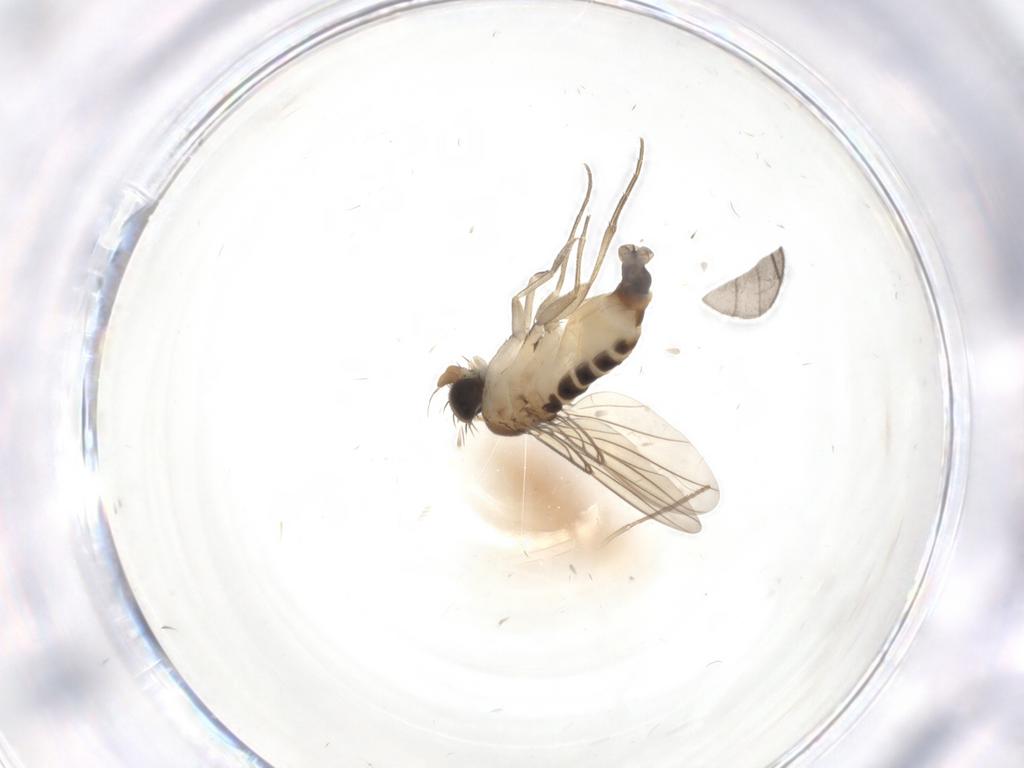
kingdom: Animalia
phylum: Arthropoda
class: Insecta
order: Diptera
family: Phoridae
